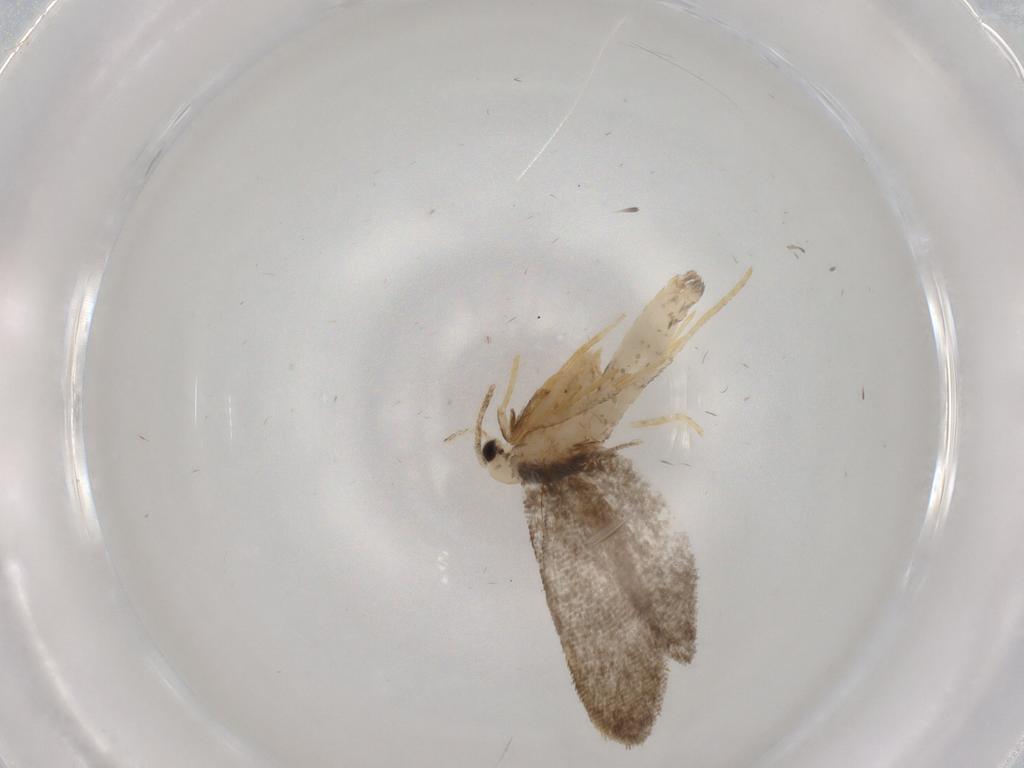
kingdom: Animalia
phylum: Arthropoda
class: Insecta
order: Lepidoptera
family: Psychidae
